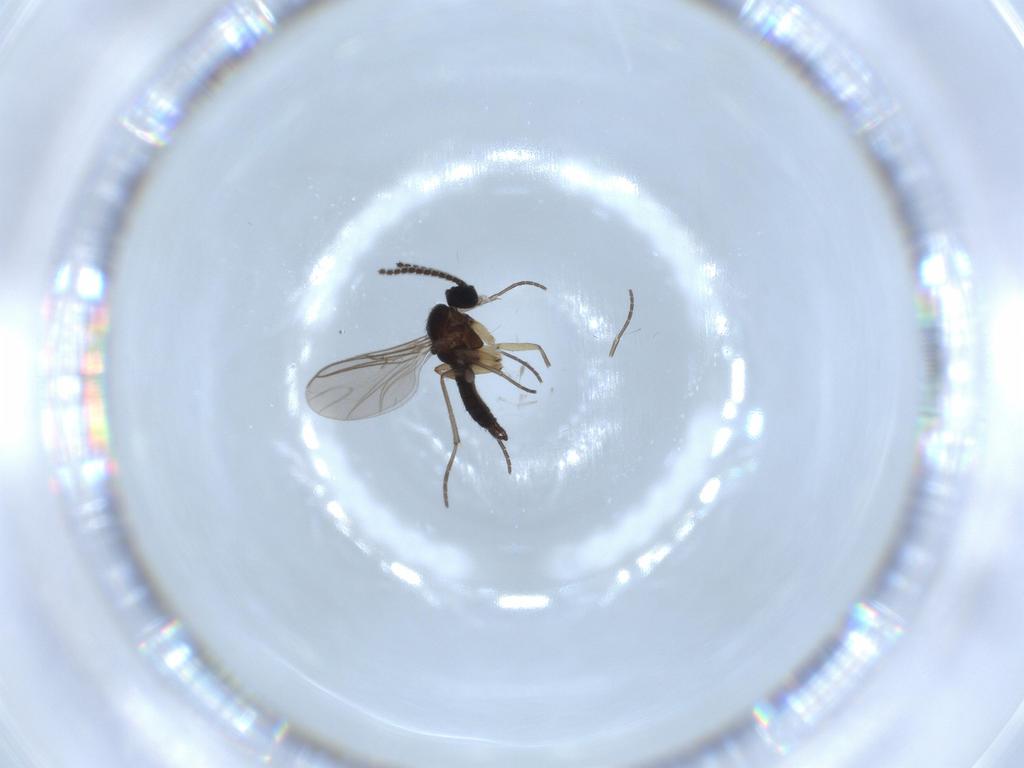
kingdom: Animalia
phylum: Arthropoda
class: Insecta
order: Diptera
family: Sciaridae
